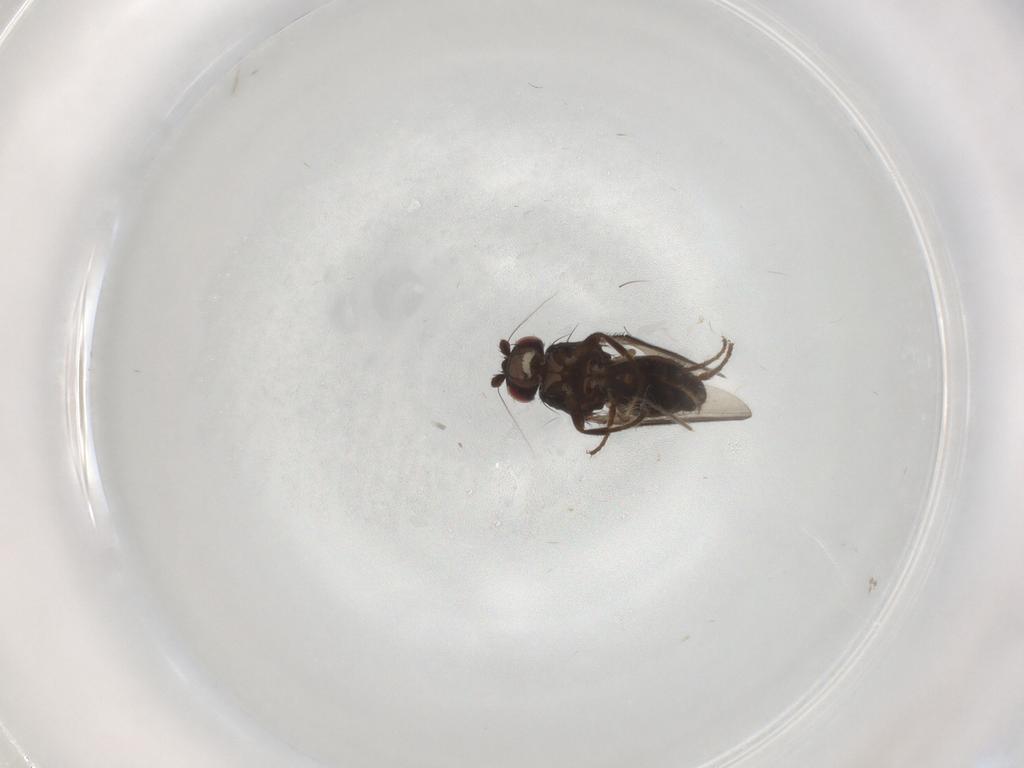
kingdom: Animalia
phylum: Arthropoda
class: Insecta
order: Diptera
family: Sphaeroceridae
